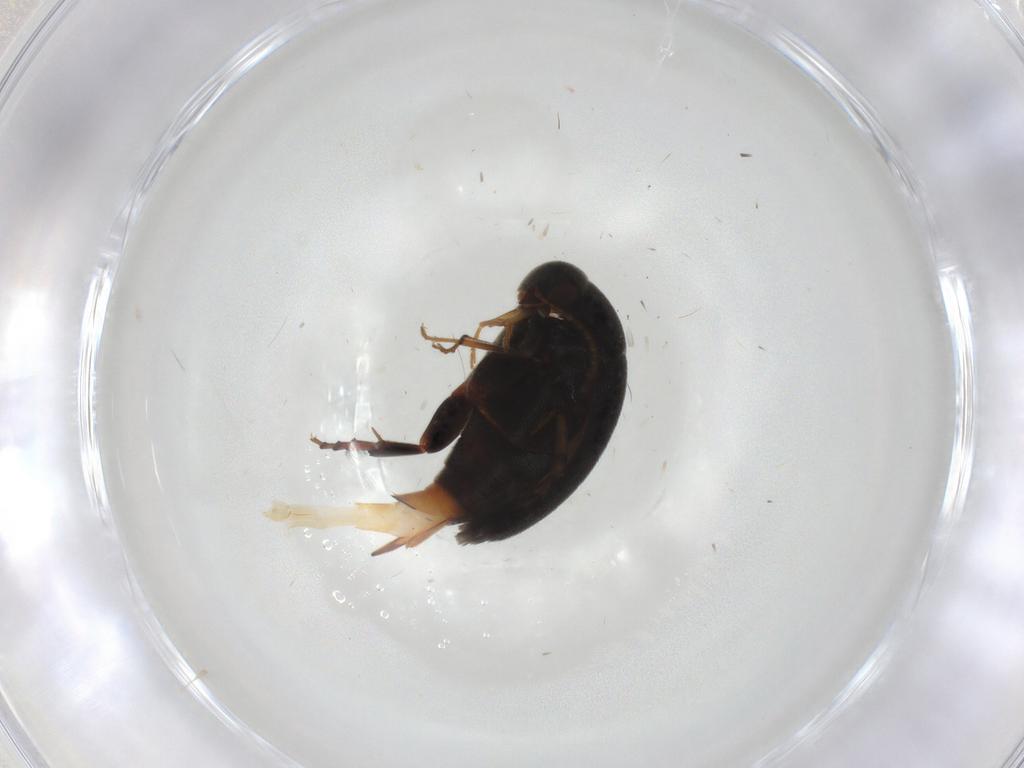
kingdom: Animalia
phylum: Arthropoda
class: Insecta
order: Coleoptera
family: Mordellidae
